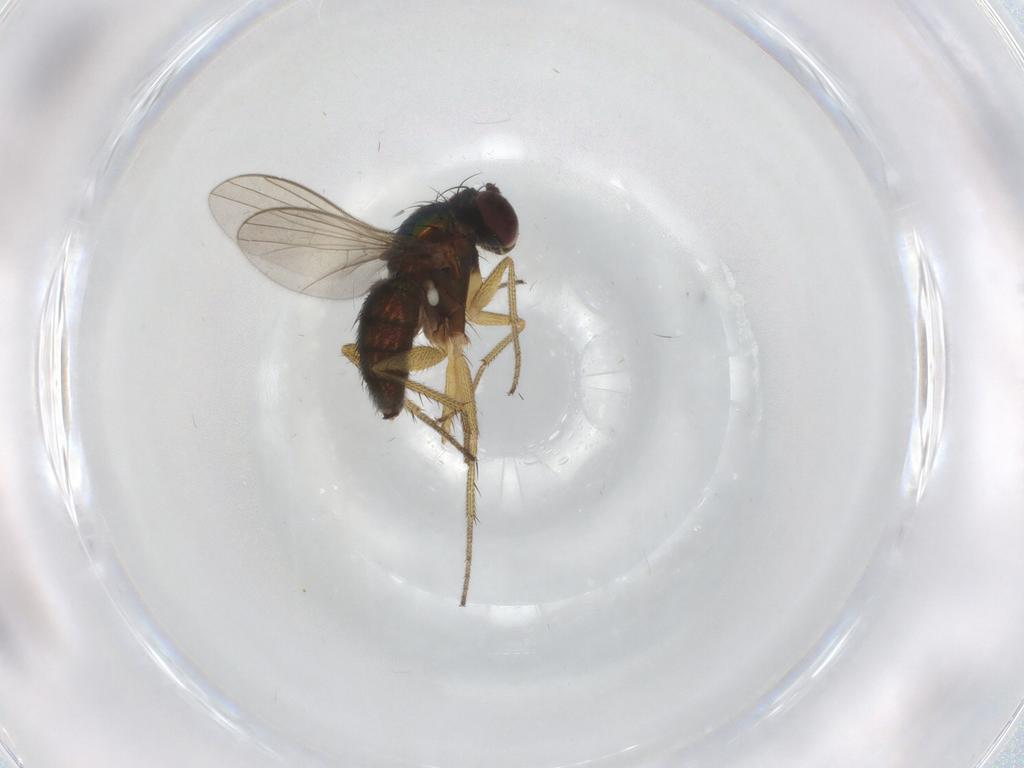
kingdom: Animalia
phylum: Arthropoda
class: Insecta
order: Diptera
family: Dolichopodidae
